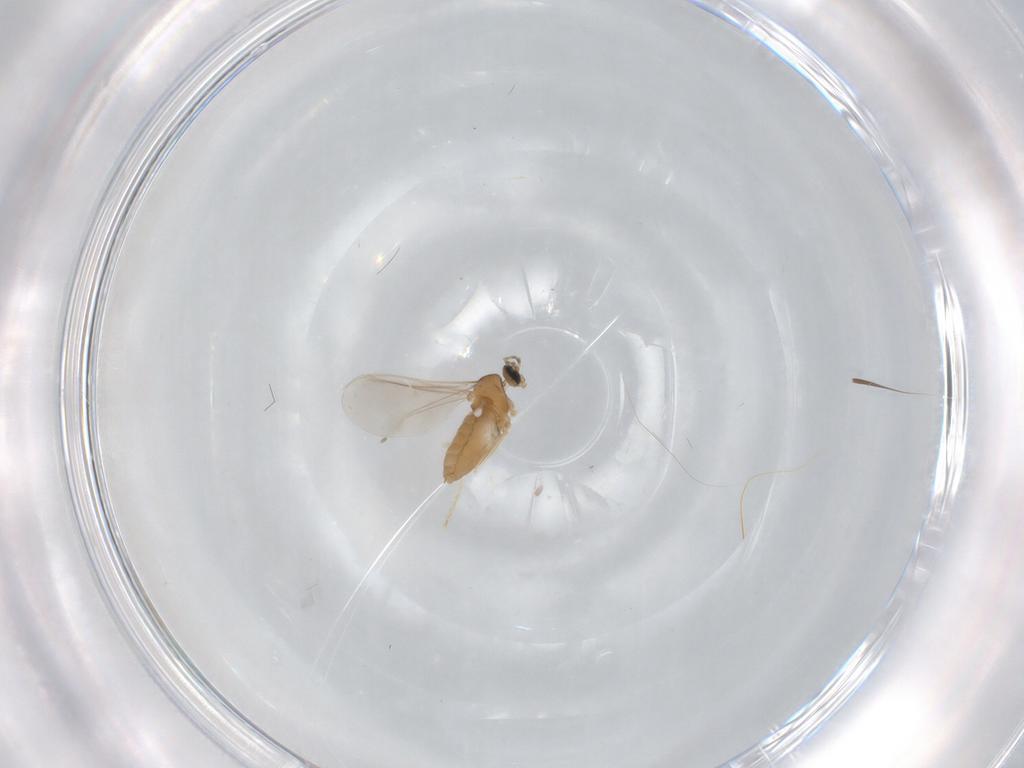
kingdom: Animalia
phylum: Arthropoda
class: Insecta
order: Diptera
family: Cecidomyiidae
